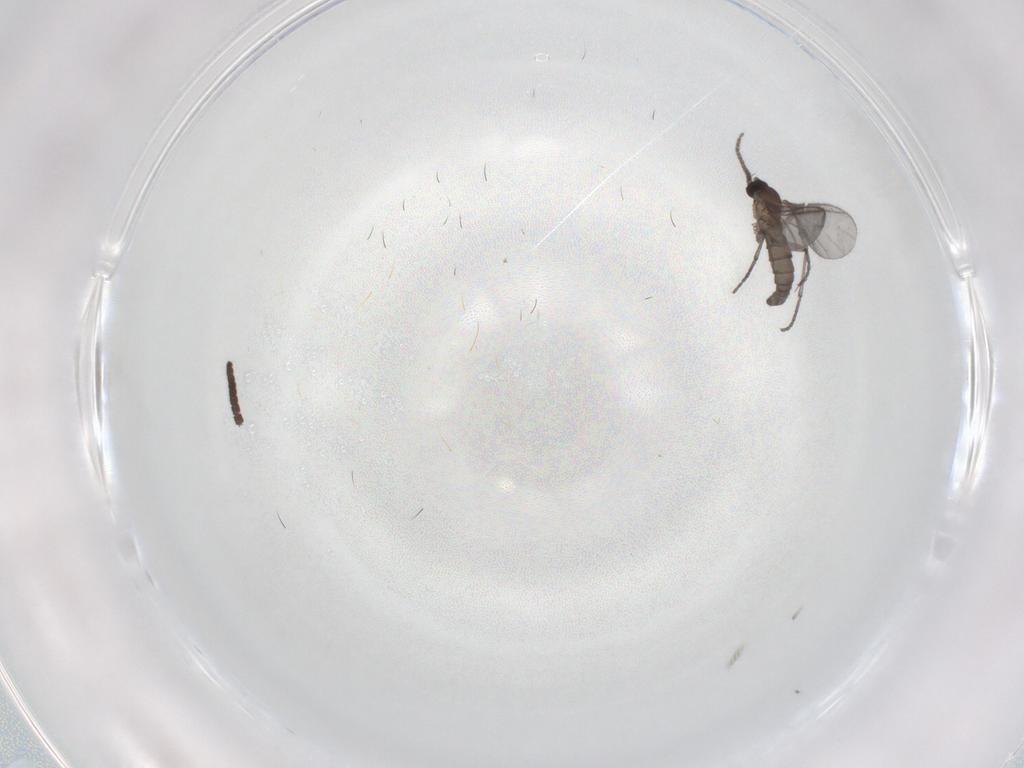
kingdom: Animalia
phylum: Arthropoda
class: Insecta
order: Diptera
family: Sciaridae
